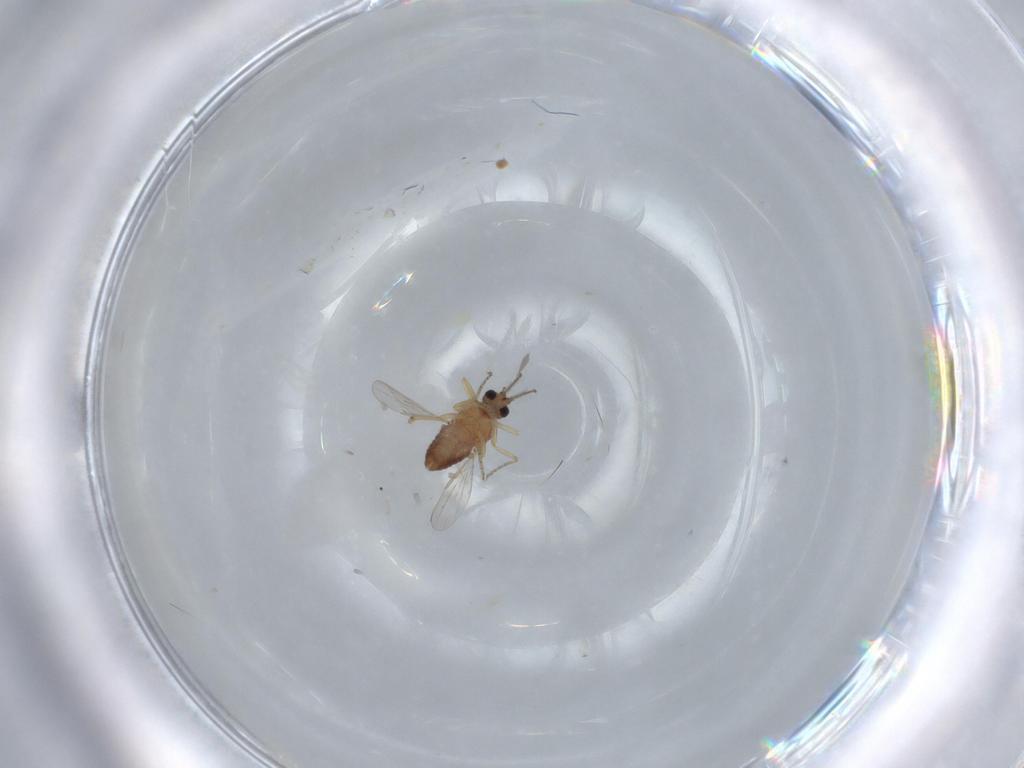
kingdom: Animalia
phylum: Arthropoda
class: Insecta
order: Diptera
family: Ceratopogonidae
